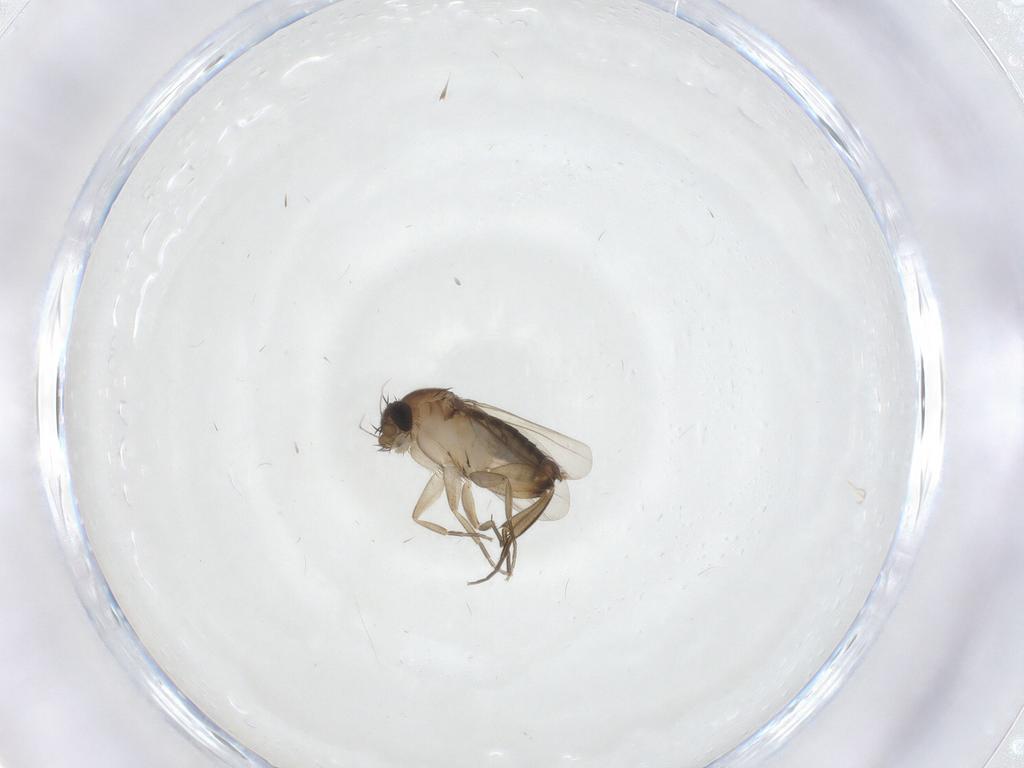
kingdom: Animalia
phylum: Arthropoda
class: Insecta
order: Diptera
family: Phoridae
